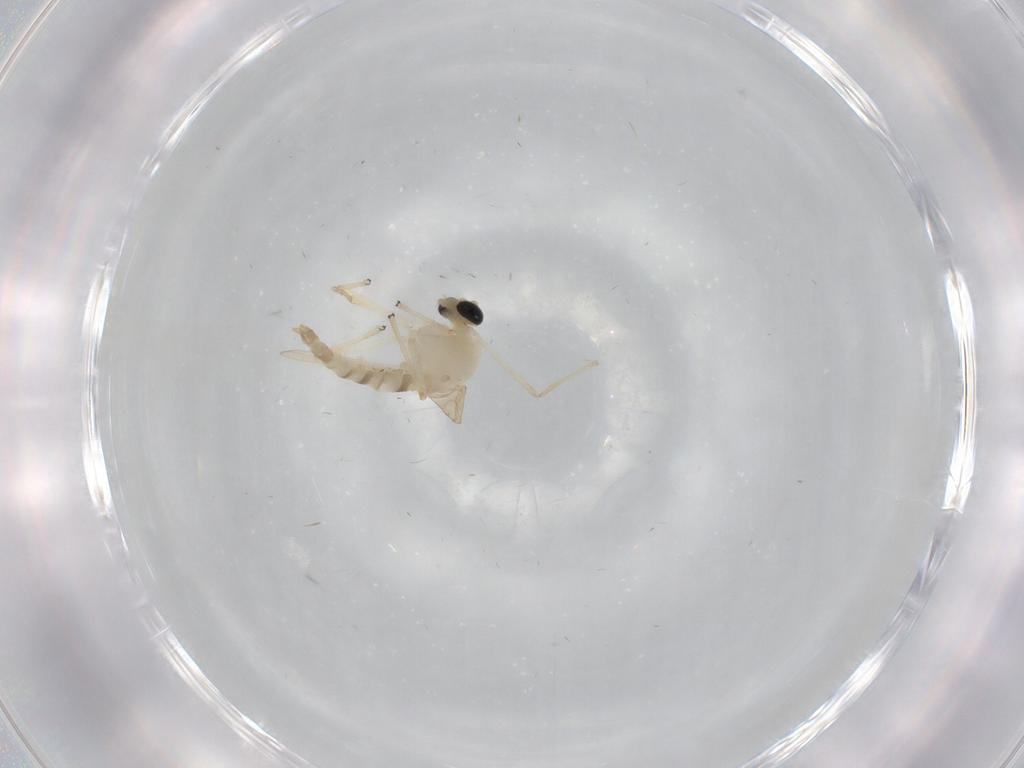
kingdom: Animalia
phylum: Arthropoda
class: Insecta
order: Diptera
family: Chironomidae
